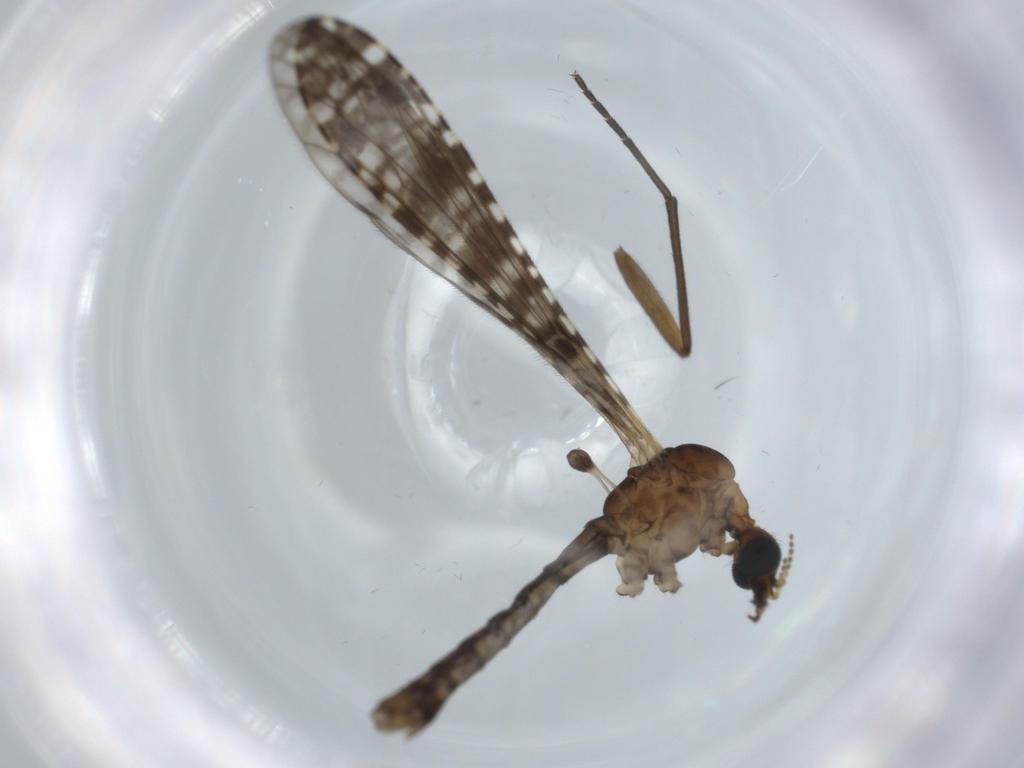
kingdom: Animalia
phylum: Arthropoda
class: Insecta
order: Diptera
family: Sciaridae
